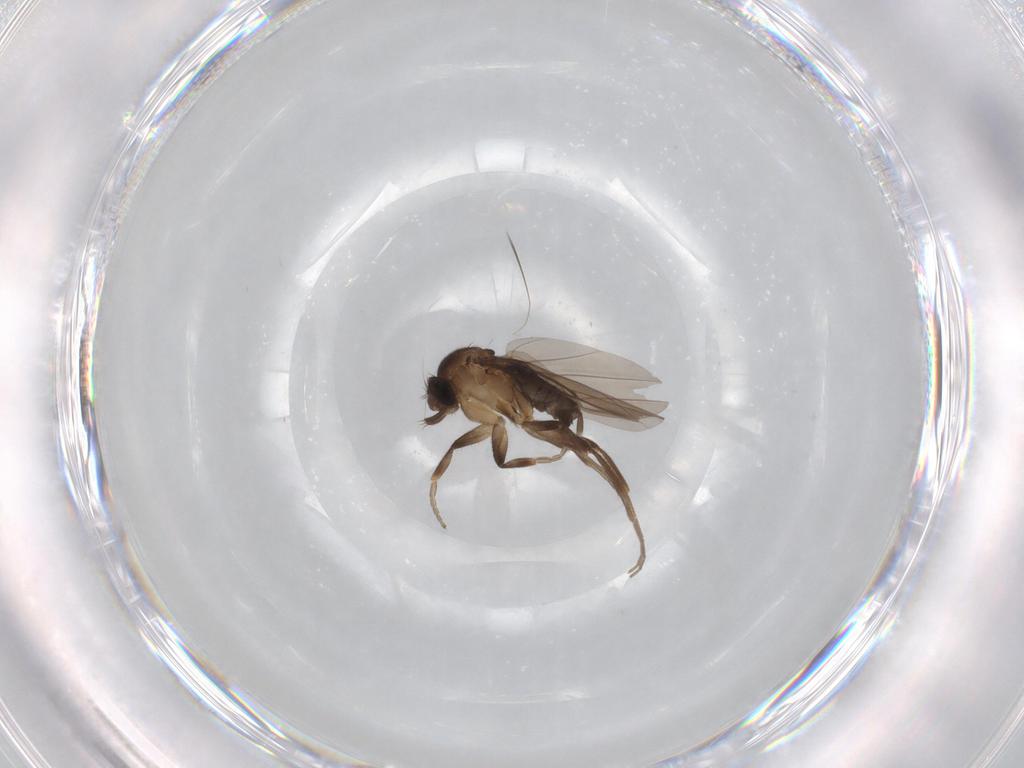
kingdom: Animalia
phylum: Arthropoda
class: Insecta
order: Diptera
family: Phoridae
